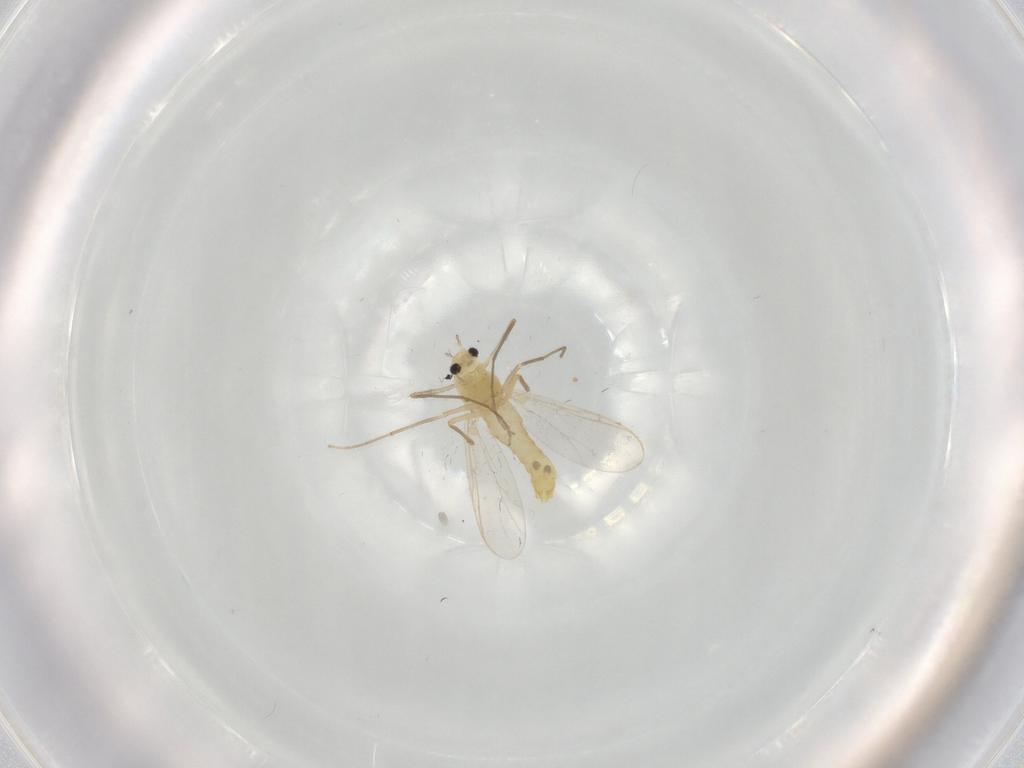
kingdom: Animalia
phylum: Arthropoda
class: Insecta
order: Diptera
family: Chironomidae
